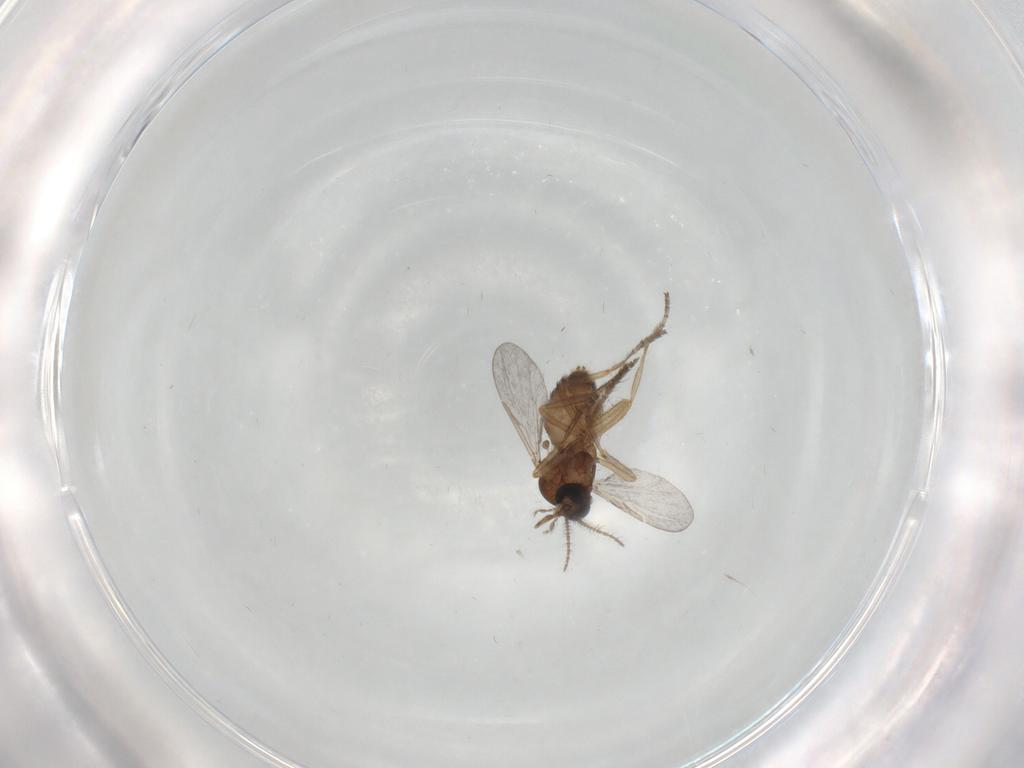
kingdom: Animalia
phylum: Arthropoda
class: Insecta
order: Diptera
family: Ceratopogonidae
